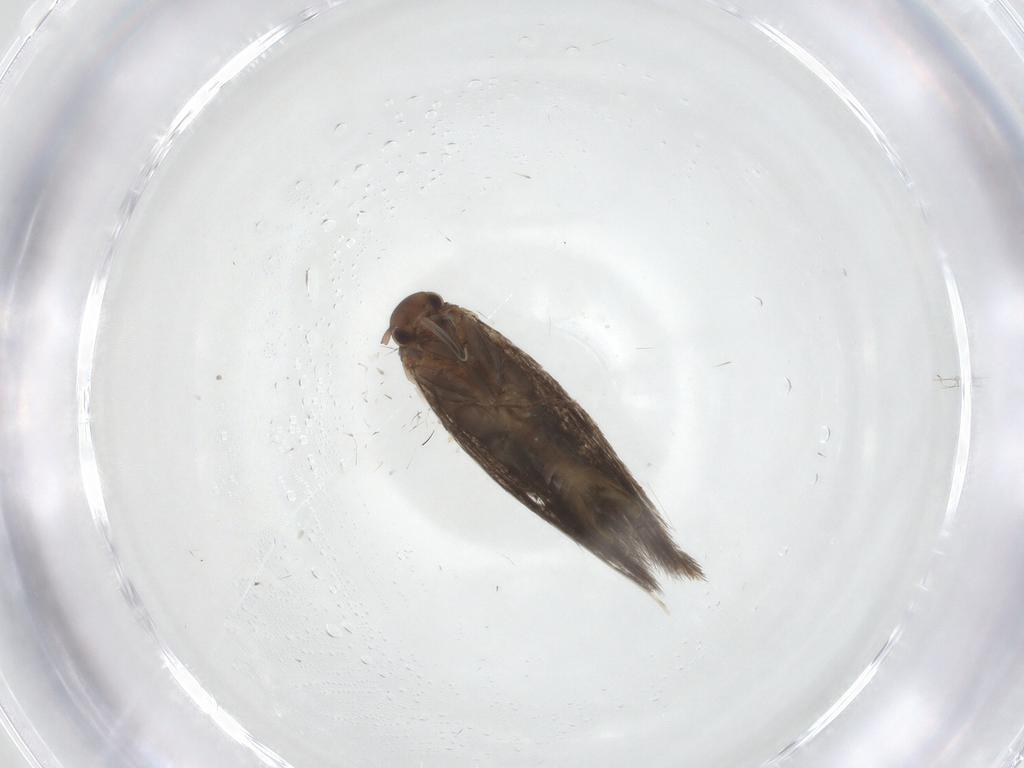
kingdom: Animalia
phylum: Arthropoda
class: Insecta
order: Lepidoptera
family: Elachistidae
